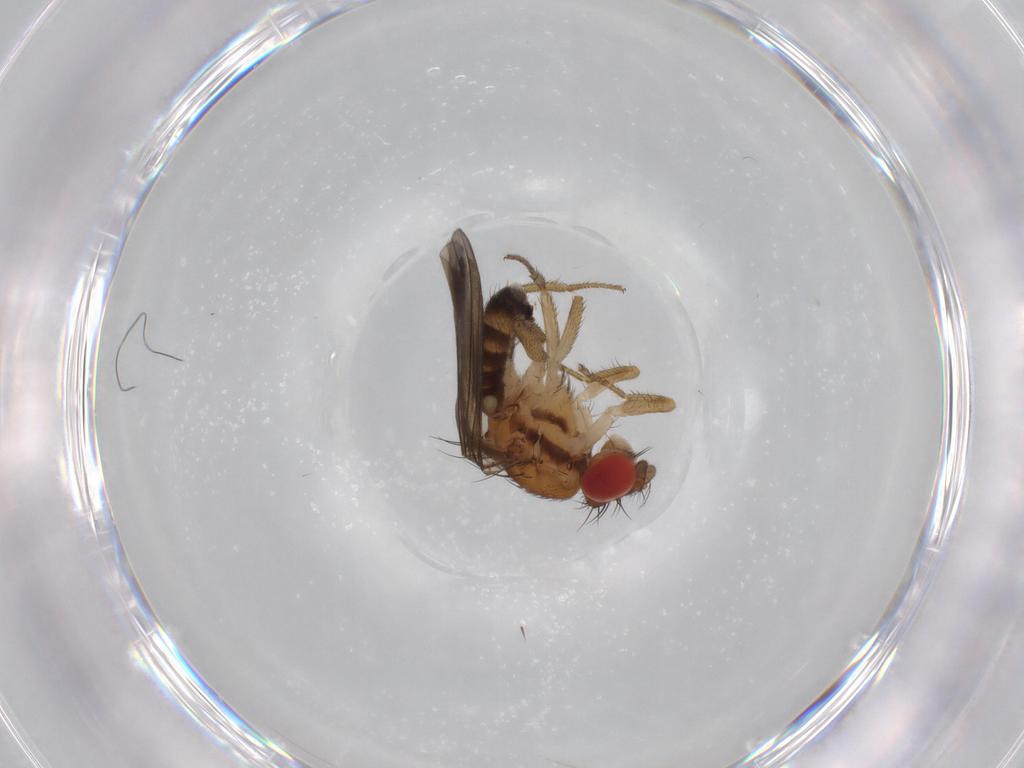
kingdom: Animalia
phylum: Arthropoda
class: Insecta
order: Diptera
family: Drosophilidae
